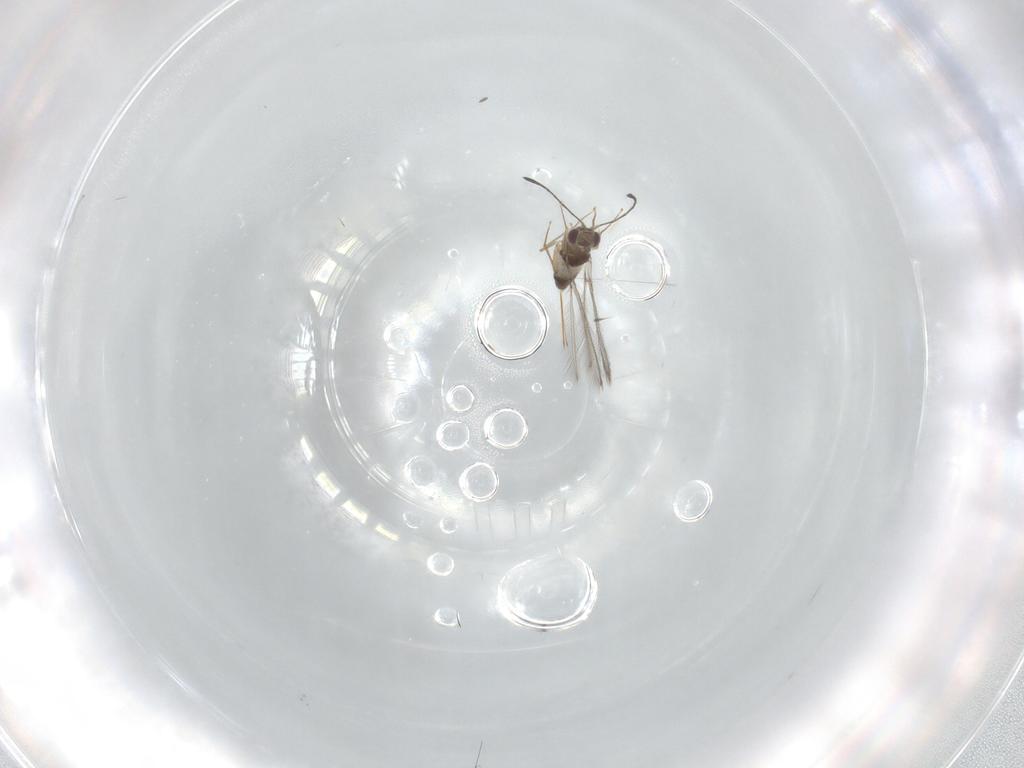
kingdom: Animalia
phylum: Arthropoda
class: Insecta
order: Hymenoptera
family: Mymaridae
